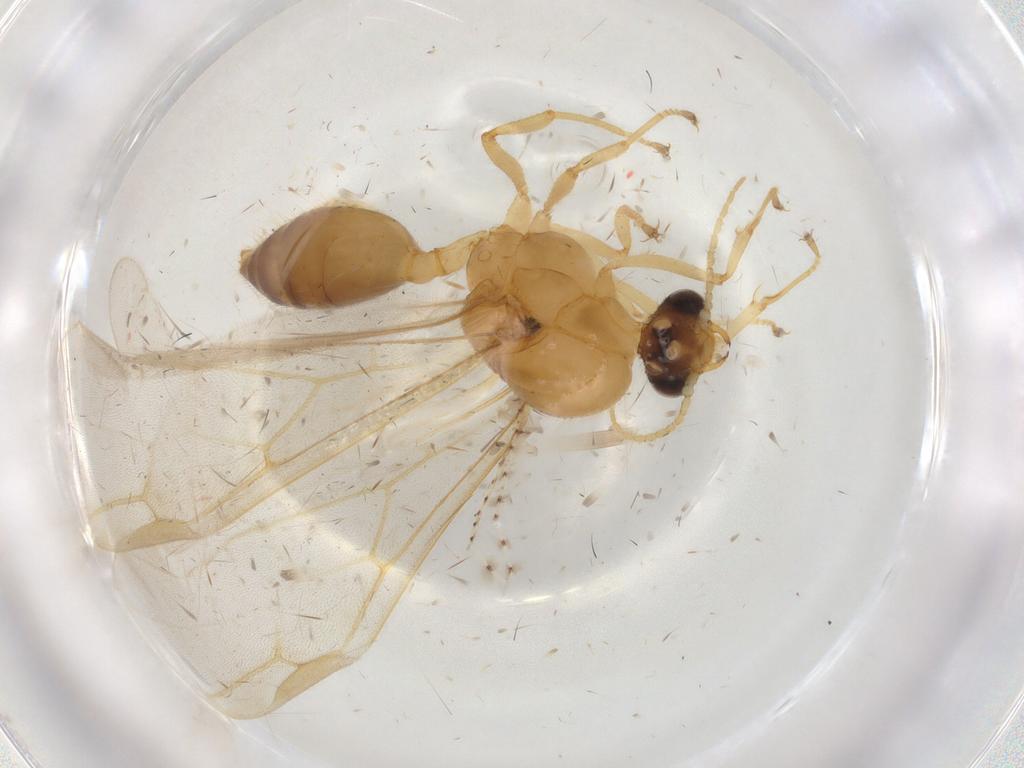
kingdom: Animalia
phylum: Arthropoda
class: Insecta
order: Hymenoptera
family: Formicidae
